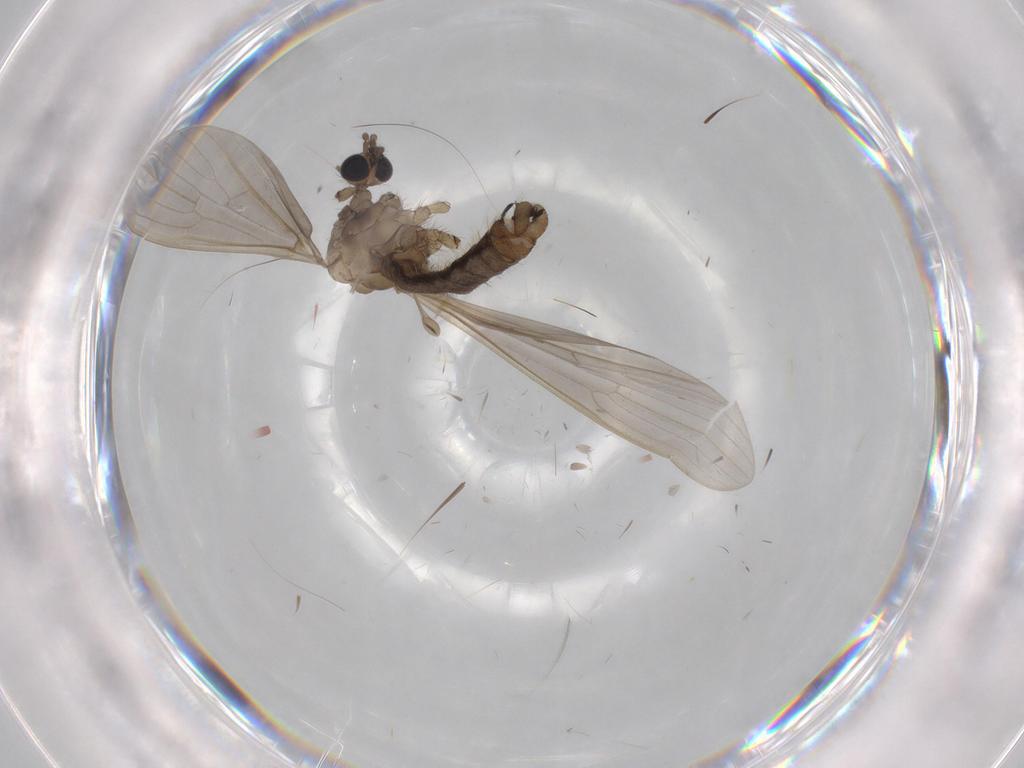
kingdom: Animalia
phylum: Arthropoda
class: Insecta
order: Diptera
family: Limoniidae
